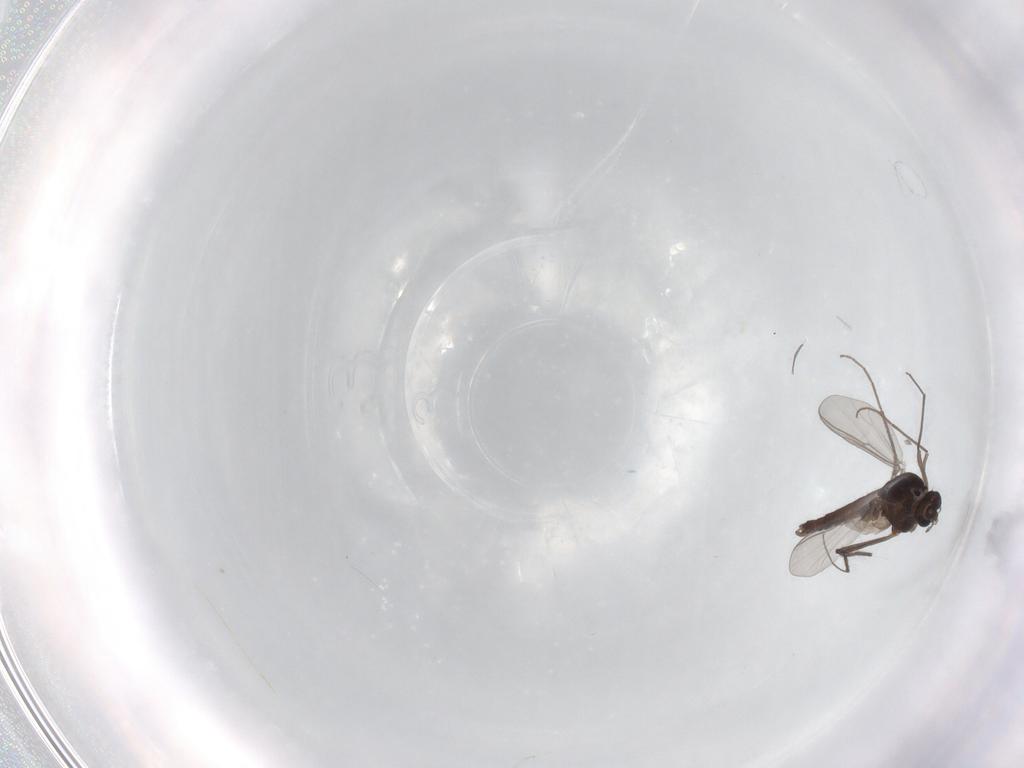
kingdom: Animalia
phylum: Arthropoda
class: Insecta
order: Diptera
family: Chironomidae
